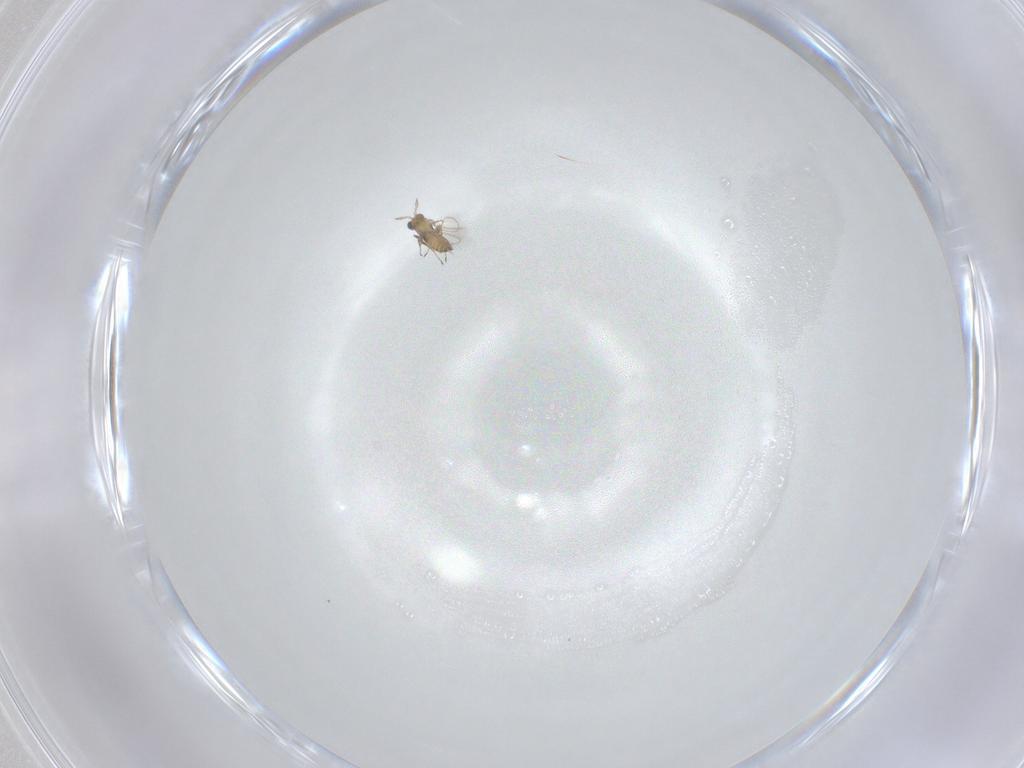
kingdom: Animalia
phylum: Arthropoda
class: Insecta
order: Hymenoptera
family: Trichogrammatidae
